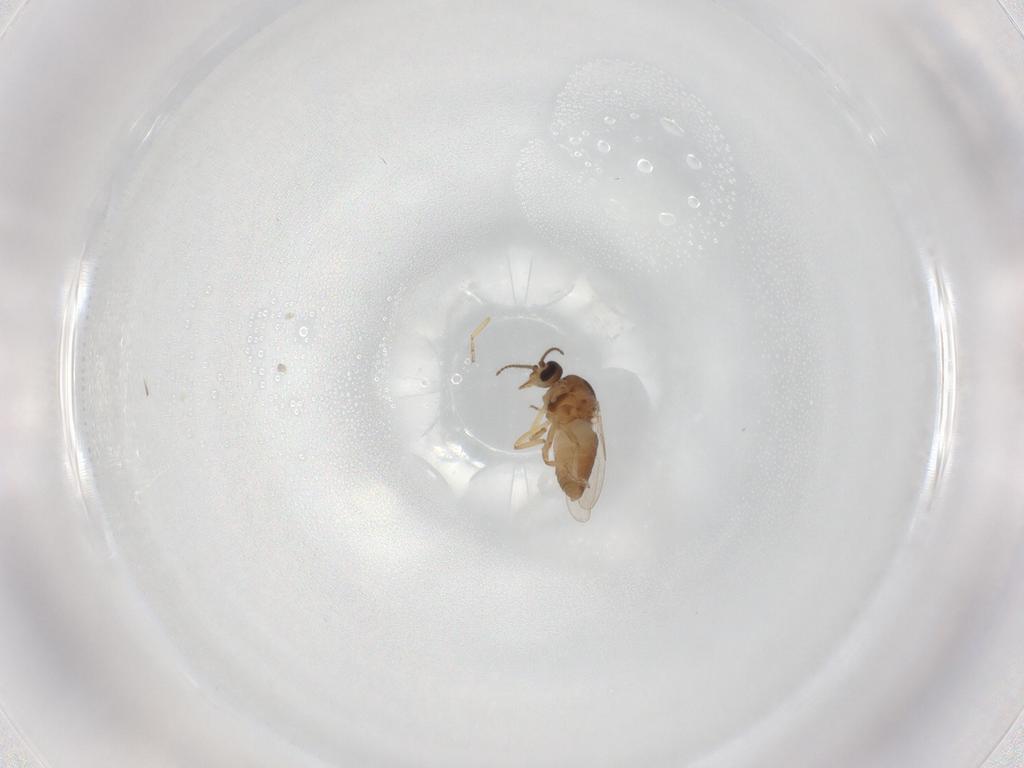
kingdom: Animalia
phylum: Arthropoda
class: Insecta
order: Diptera
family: Ceratopogonidae
